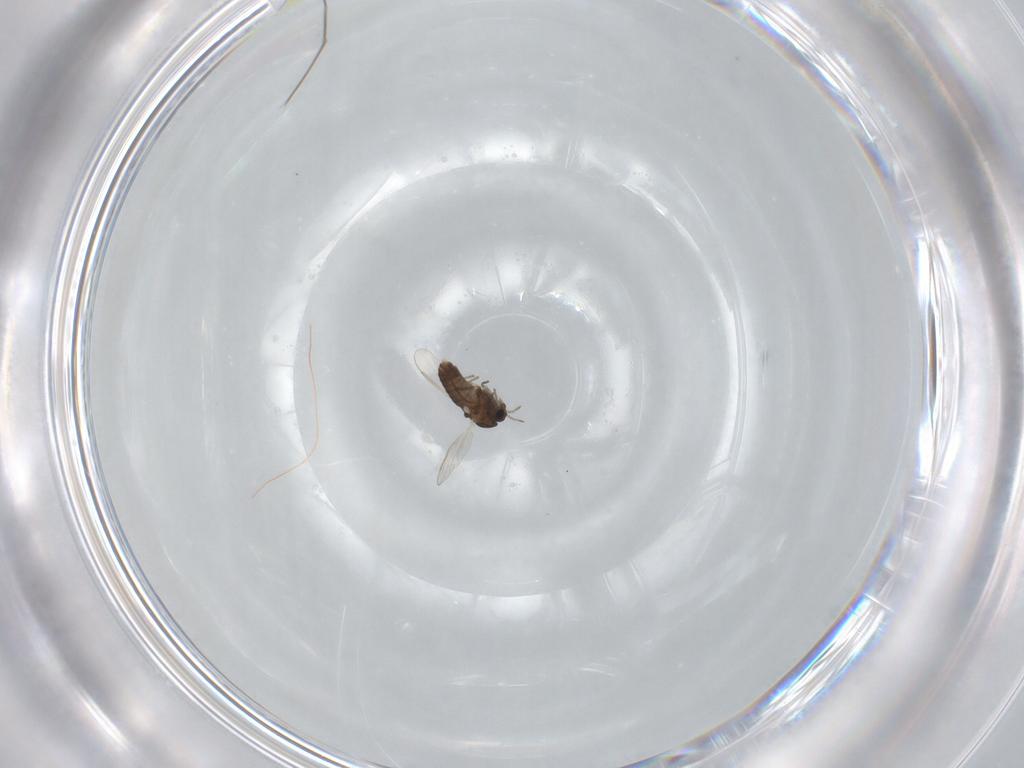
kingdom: Animalia
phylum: Arthropoda
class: Insecta
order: Diptera
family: Chironomidae
